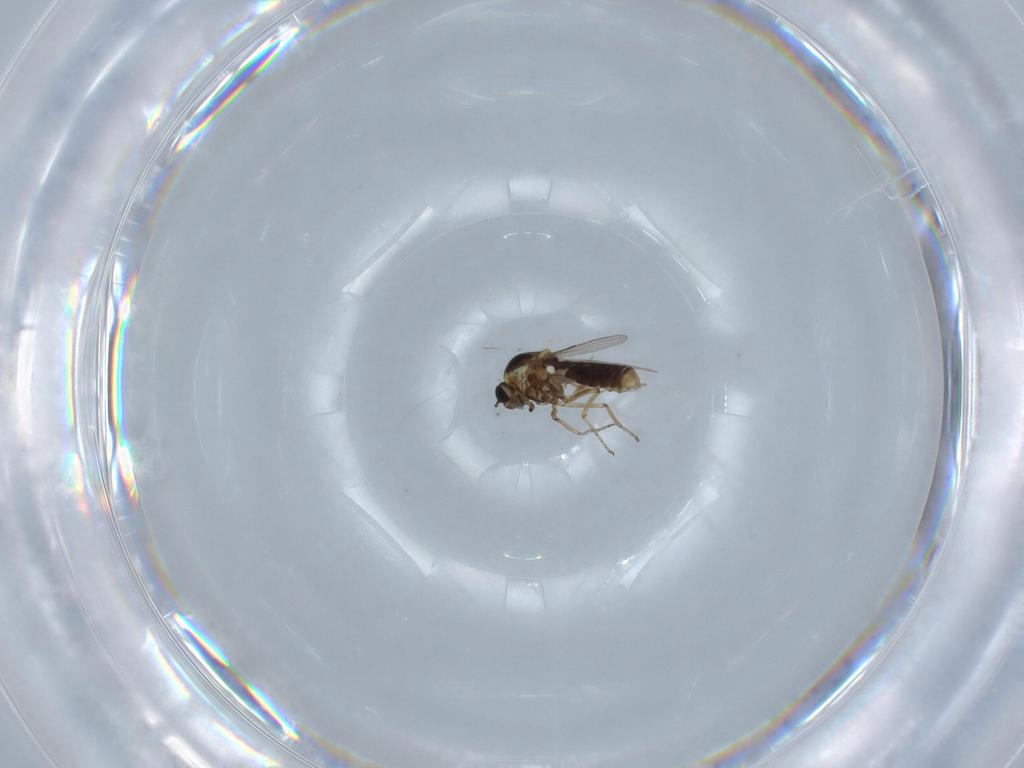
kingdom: Animalia
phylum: Arthropoda
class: Insecta
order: Diptera
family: Ceratopogonidae
